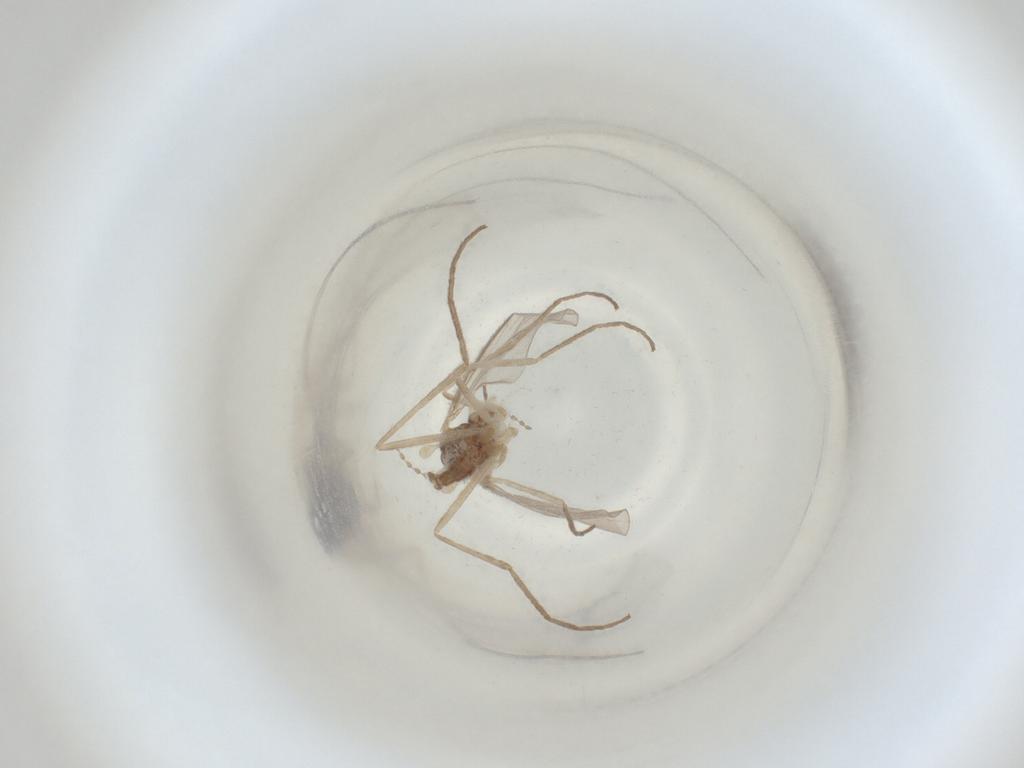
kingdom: Animalia
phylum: Arthropoda
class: Insecta
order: Diptera
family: Cecidomyiidae
